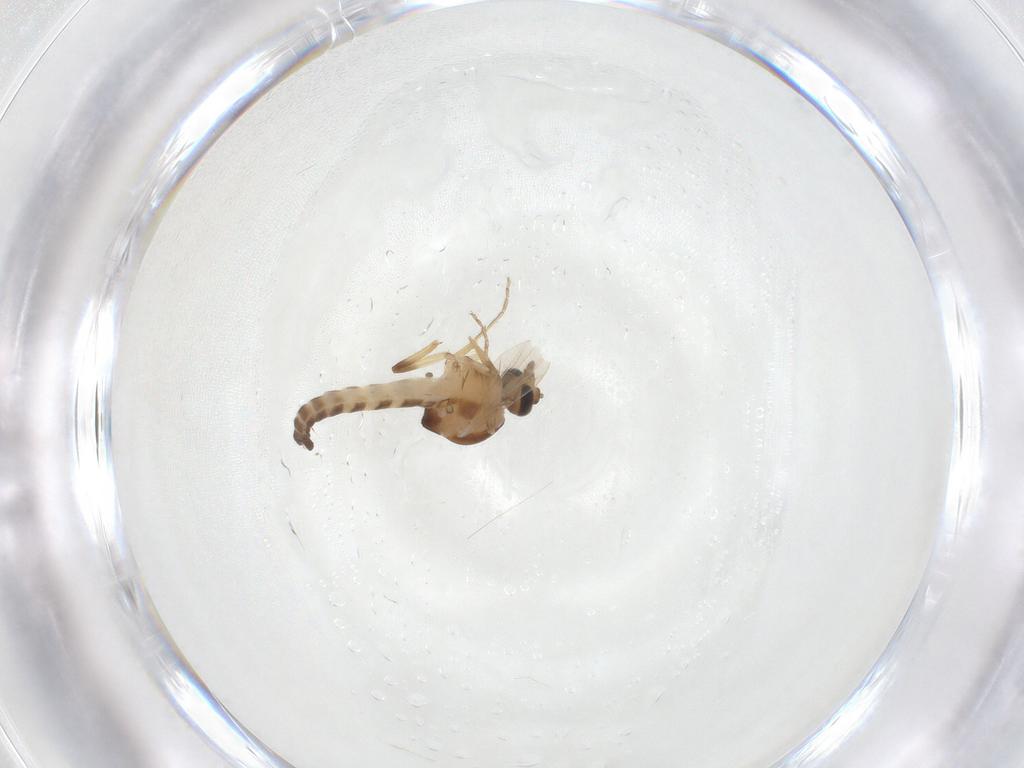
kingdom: Animalia
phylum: Arthropoda
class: Insecta
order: Diptera
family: Ceratopogonidae
